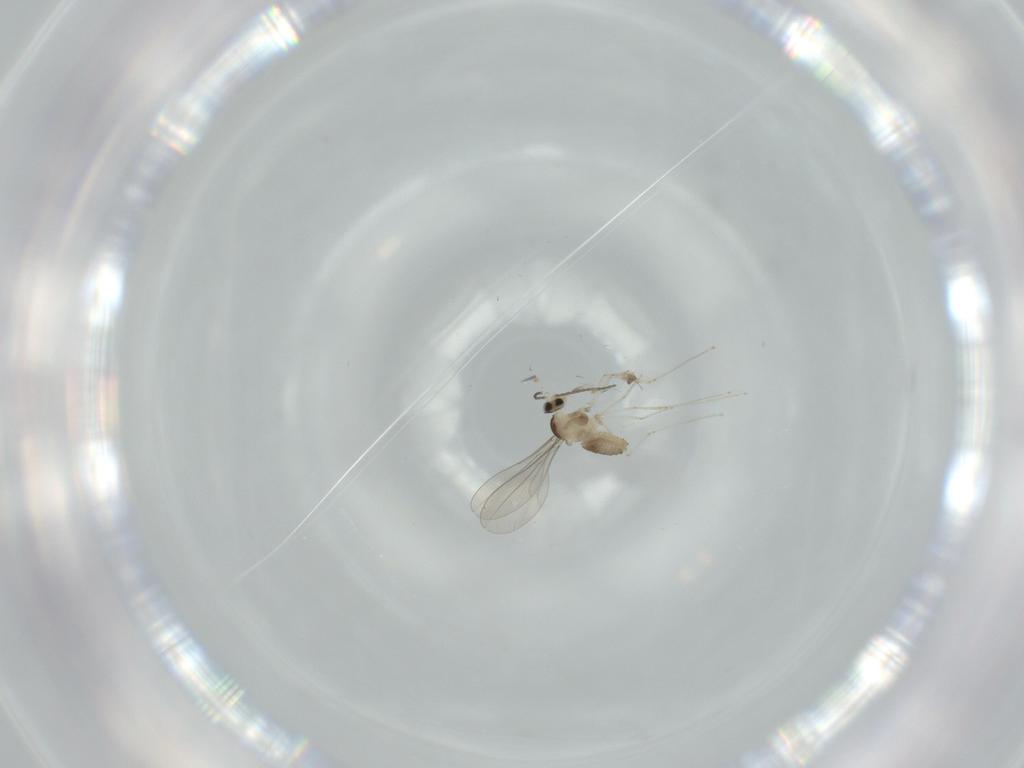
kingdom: Animalia
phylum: Arthropoda
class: Insecta
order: Diptera
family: Cecidomyiidae
